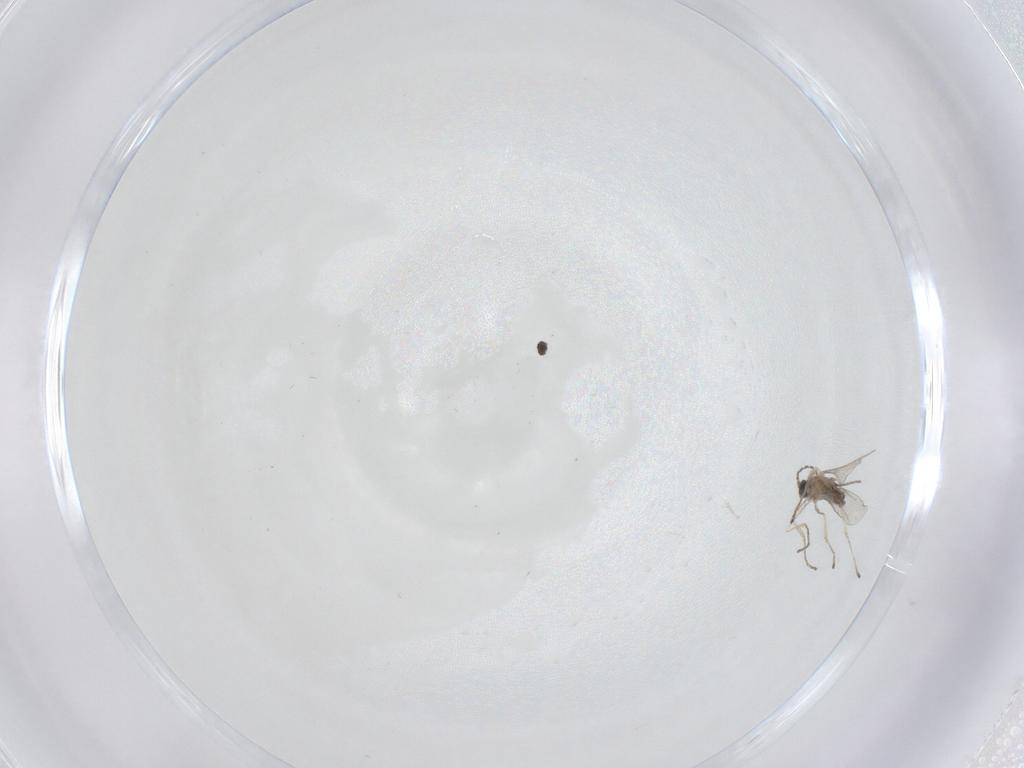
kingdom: Animalia
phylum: Arthropoda
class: Insecta
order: Diptera
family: Cecidomyiidae
